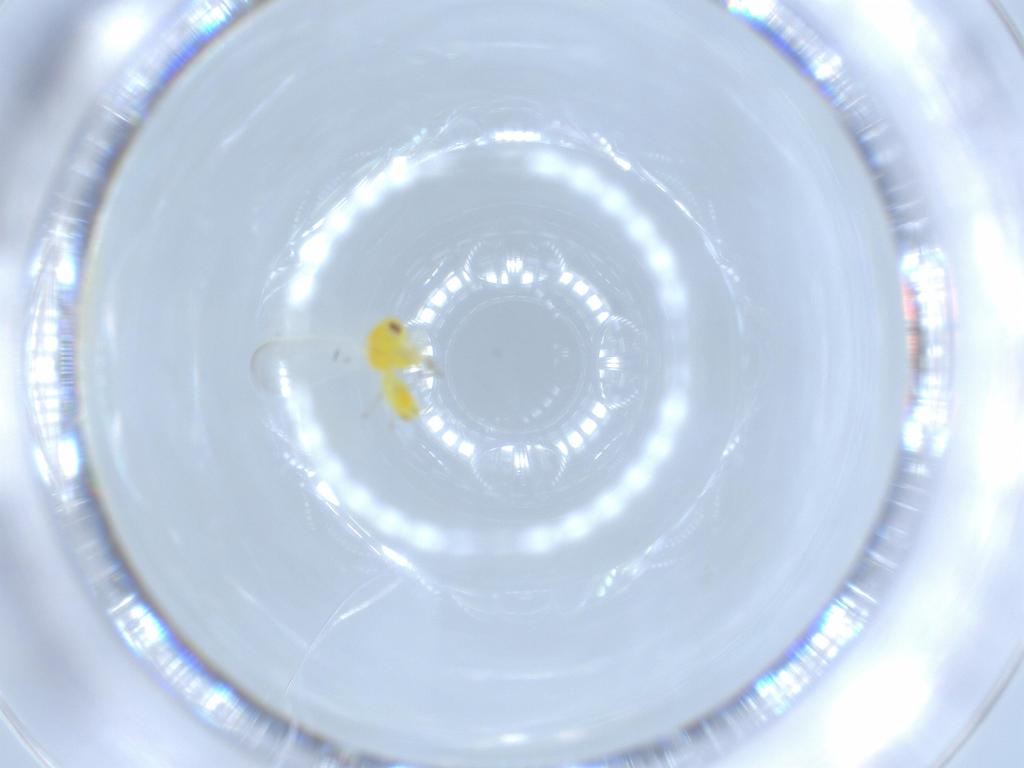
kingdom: Animalia
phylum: Arthropoda
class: Insecta
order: Hemiptera
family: Aleyrodidae
